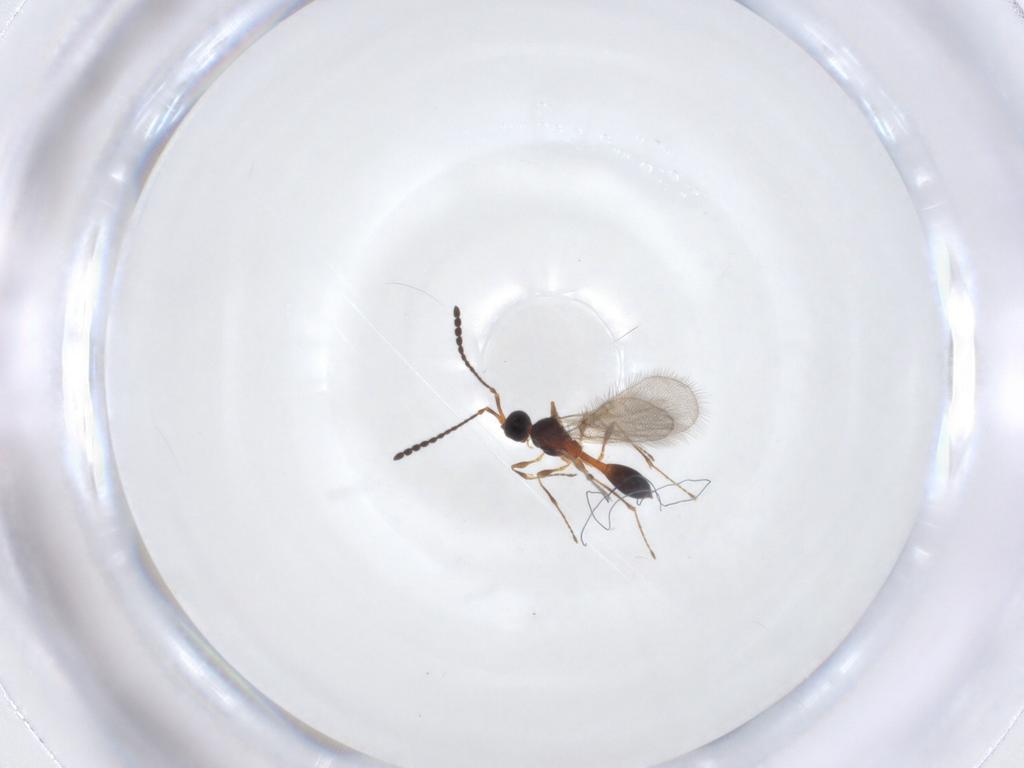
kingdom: Animalia
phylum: Arthropoda
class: Insecta
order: Hymenoptera
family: Diapriidae
